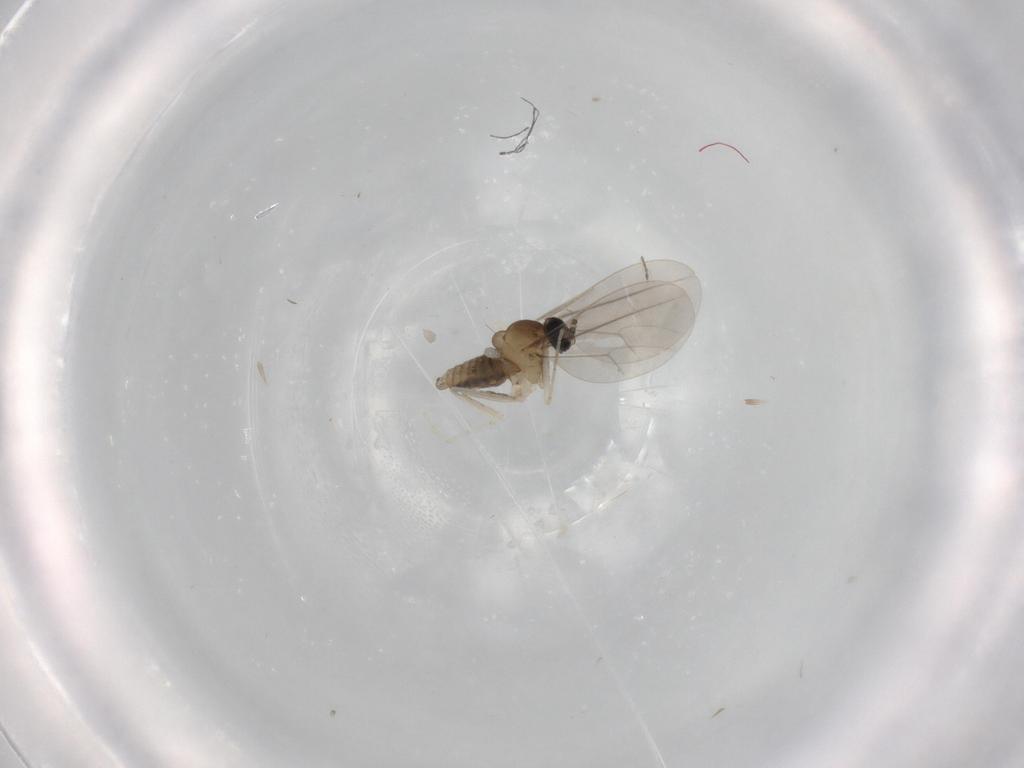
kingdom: Animalia
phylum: Arthropoda
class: Insecta
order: Diptera
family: Cecidomyiidae
